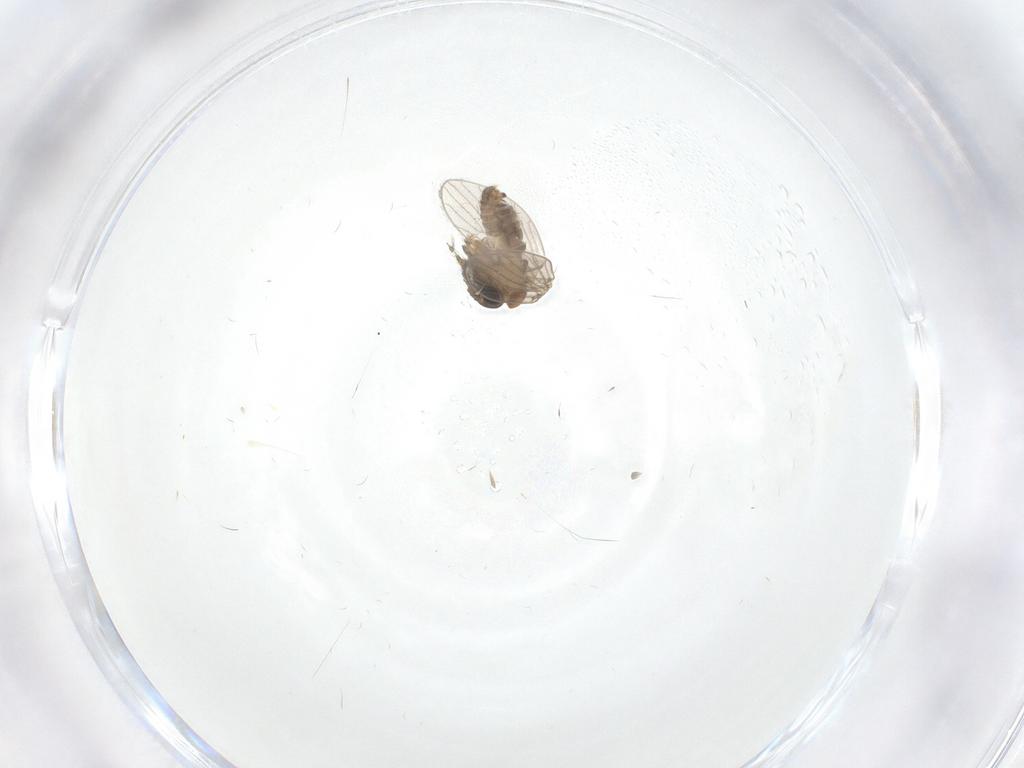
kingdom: Animalia
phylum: Arthropoda
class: Insecta
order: Diptera
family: Psychodidae
